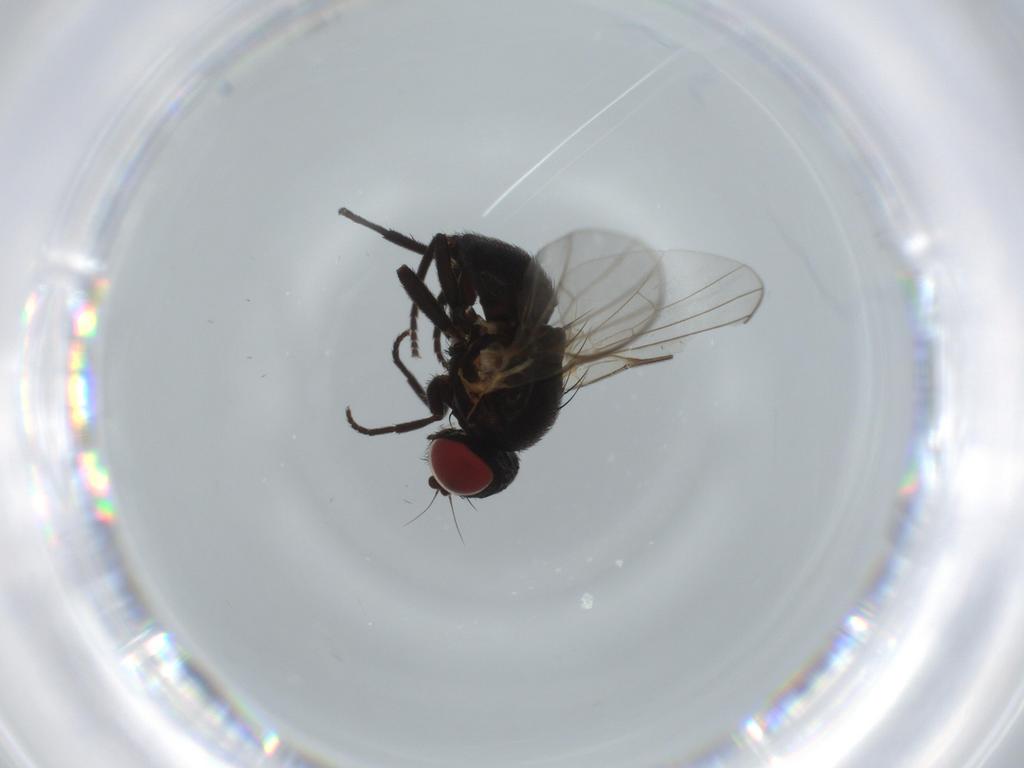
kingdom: Animalia
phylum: Arthropoda
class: Insecta
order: Diptera
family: Agromyzidae
